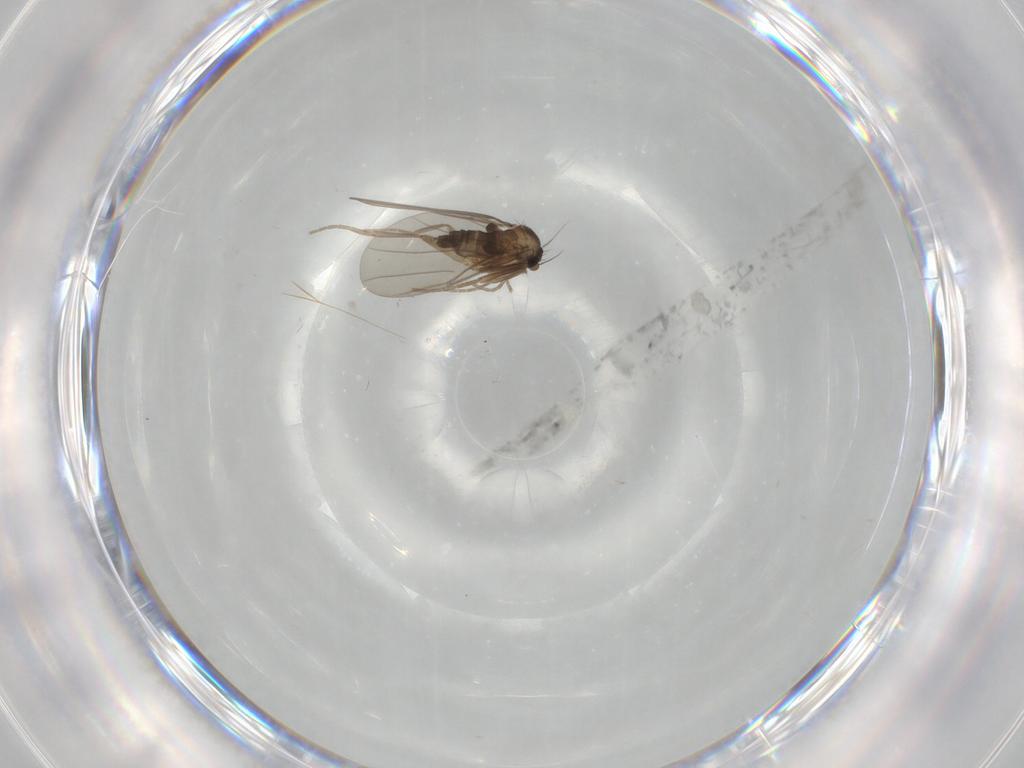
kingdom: Animalia
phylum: Arthropoda
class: Insecta
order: Diptera
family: Phoridae
